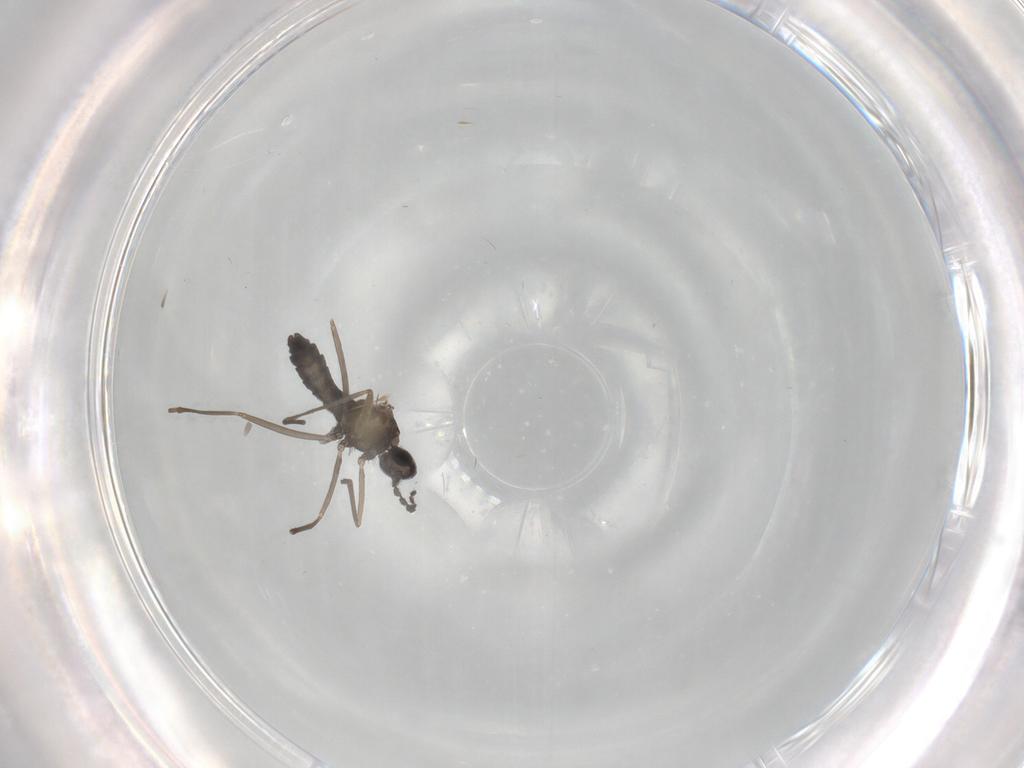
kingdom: Animalia
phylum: Arthropoda
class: Insecta
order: Diptera
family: Cecidomyiidae
